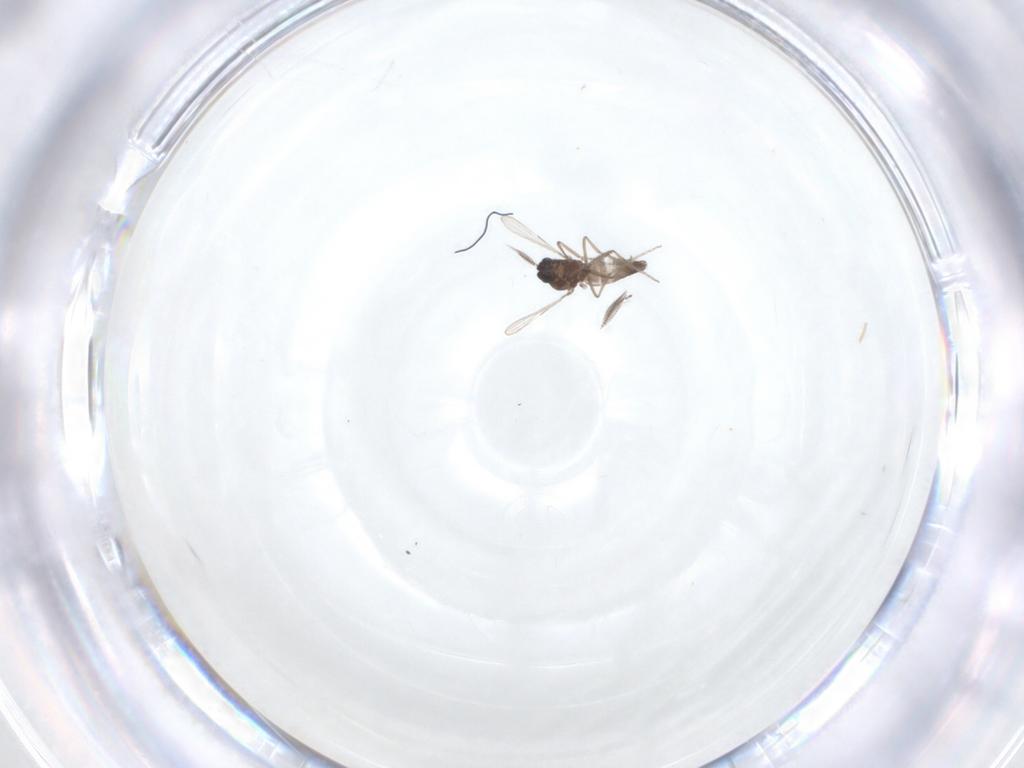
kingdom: Animalia
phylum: Arthropoda
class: Insecta
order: Diptera
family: Ceratopogonidae
